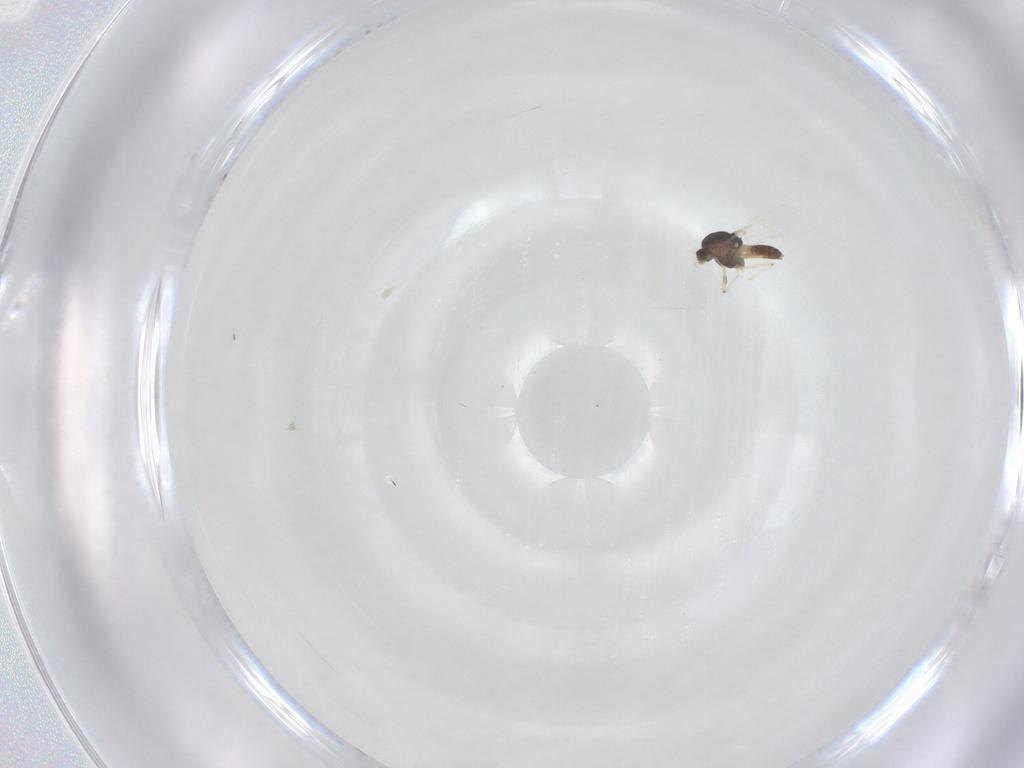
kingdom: Animalia
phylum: Arthropoda
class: Insecta
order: Diptera
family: Chironomidae
